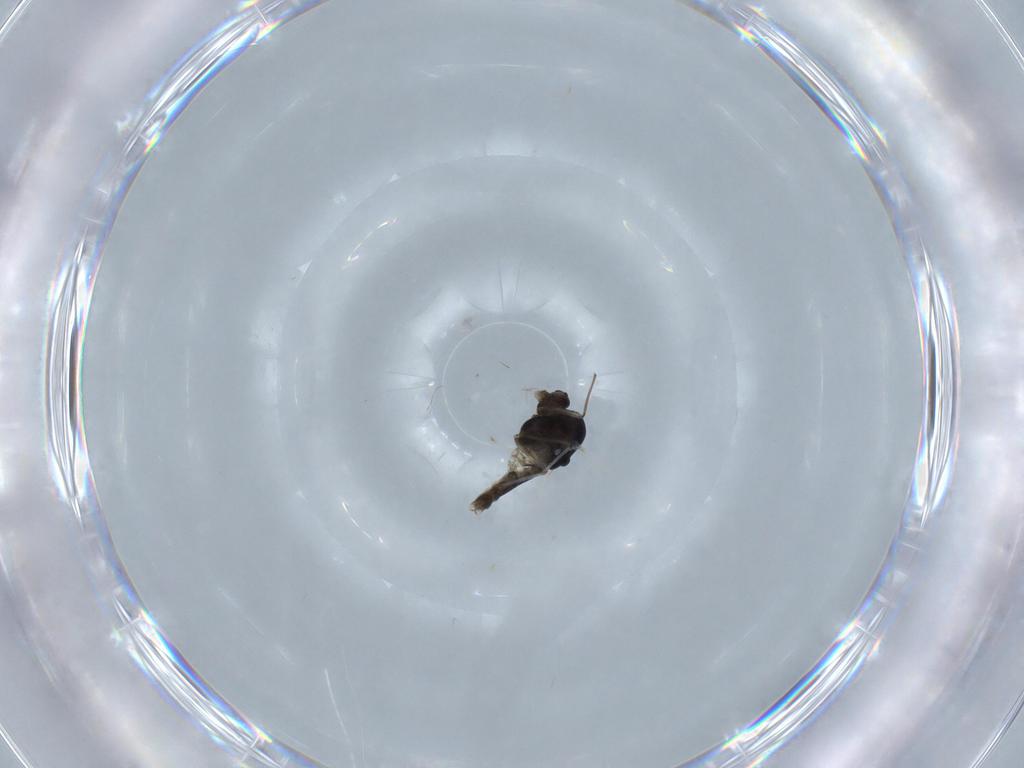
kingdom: Animalia
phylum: Arthropoda
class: Insecta
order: Diptera
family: Chironomidae
